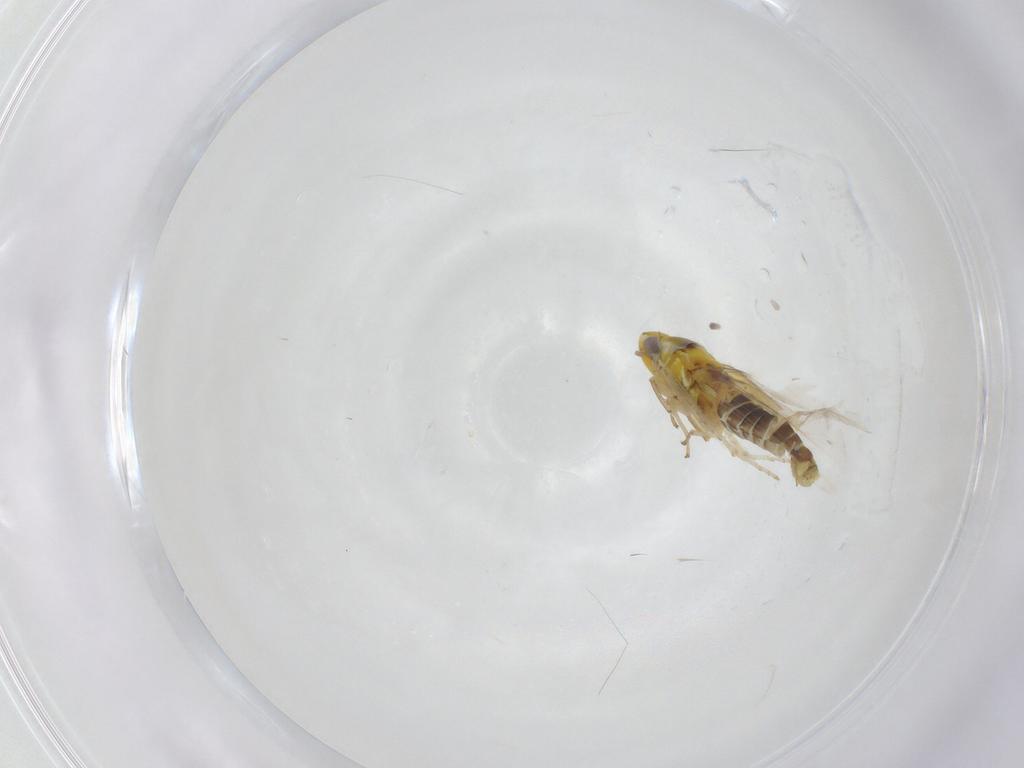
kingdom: Animalia
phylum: Arthropoda
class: Insecta
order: Hemiptera
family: Cicadellidae
